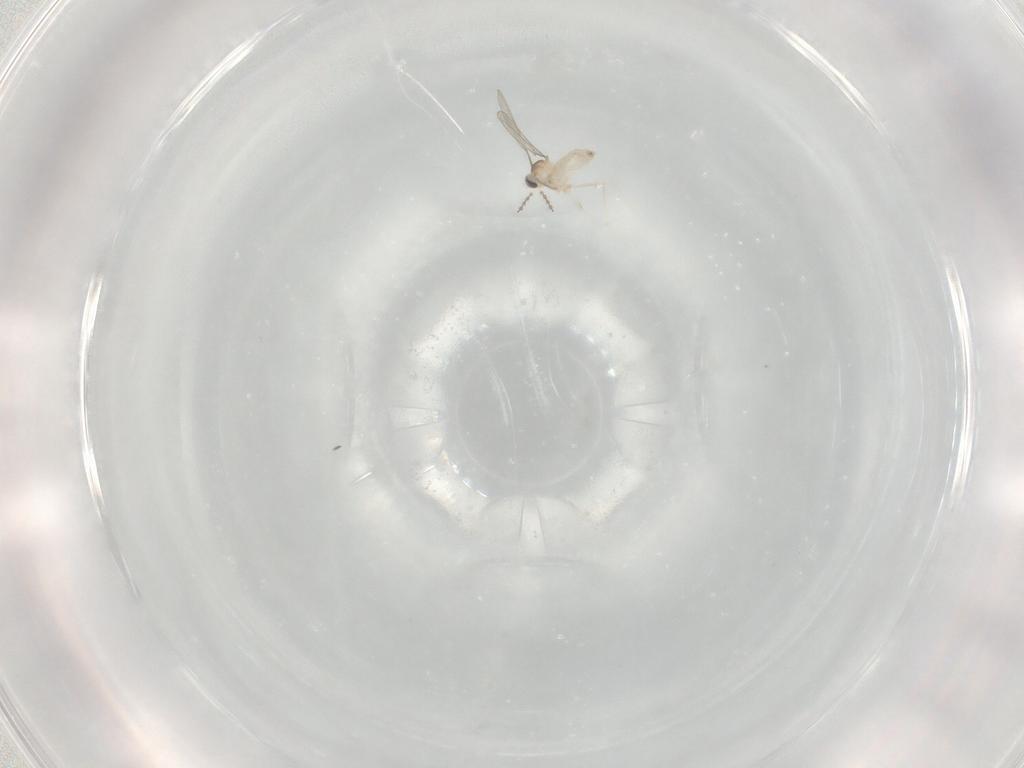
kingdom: Animalia
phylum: Arthropoda
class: Insecta
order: Diptera
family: Cecidomyiidae
